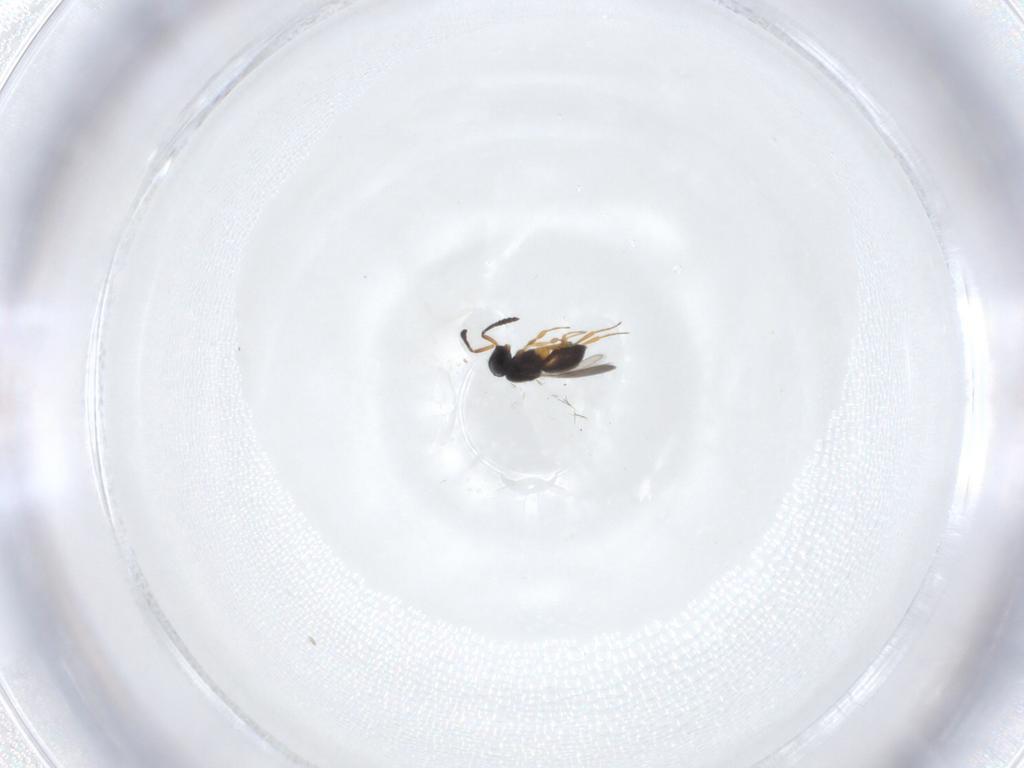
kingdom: Animalia
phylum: Arthropoda
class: Insecta
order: Hymenoptera
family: Scelionidae
